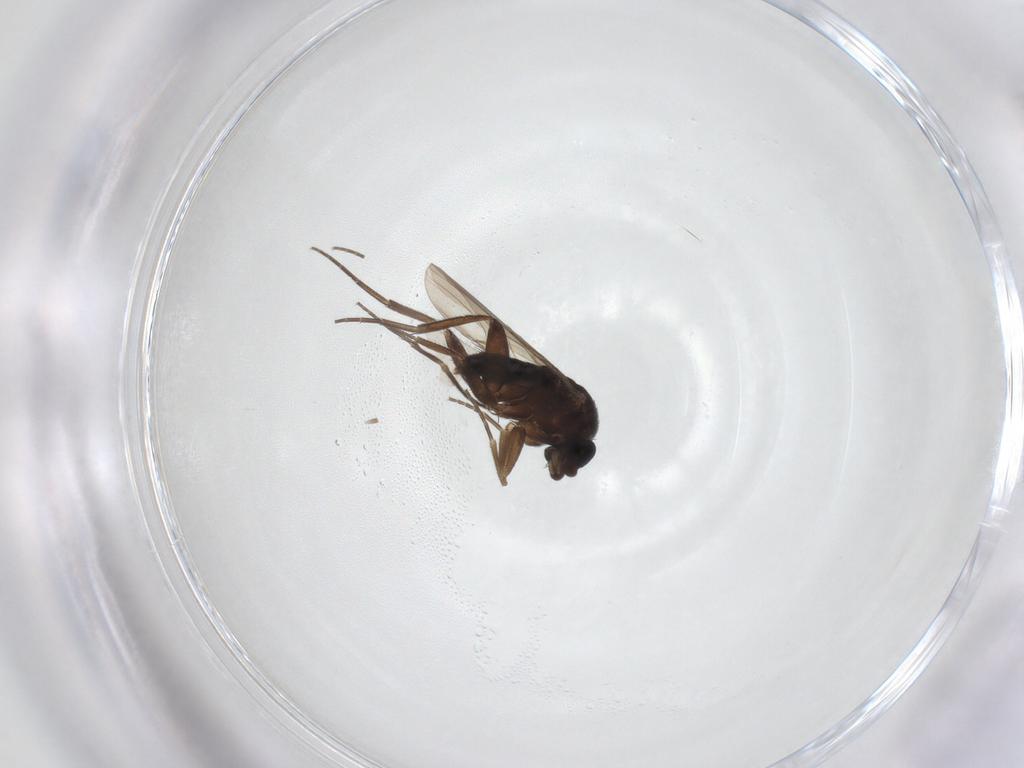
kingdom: Animalia
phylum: Arthropoda
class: Insecta
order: Diptera
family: Phoridae
